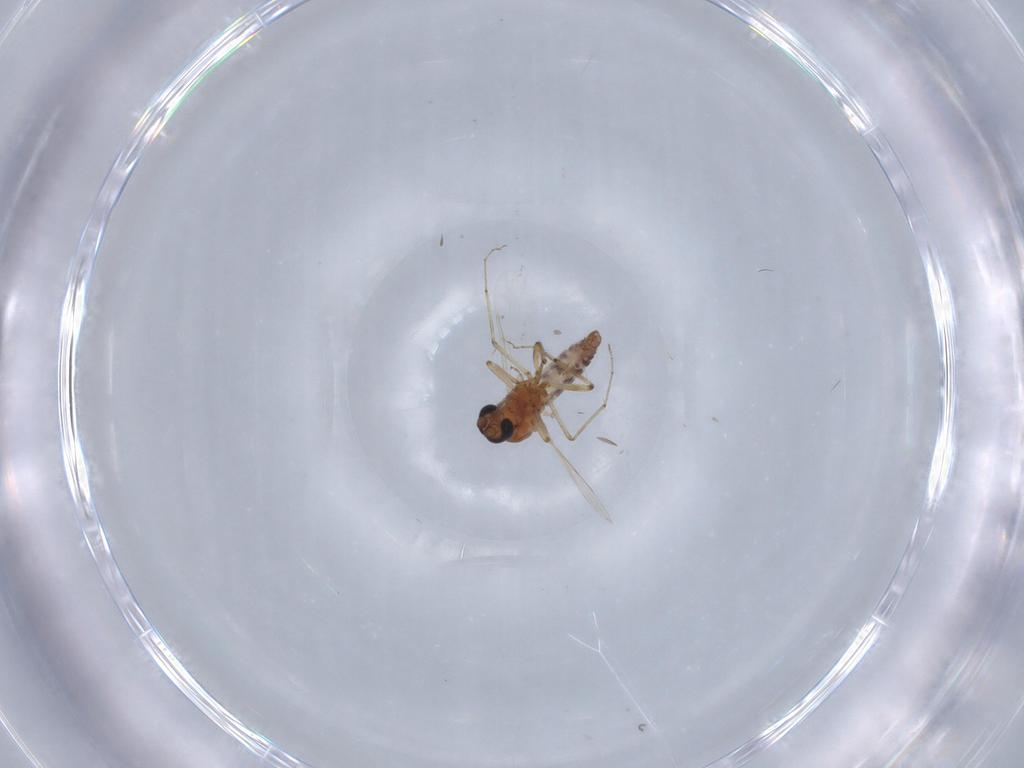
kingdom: Animalia
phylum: Arthropoda
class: Insecta
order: Diptera
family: Ceratopogonidae
